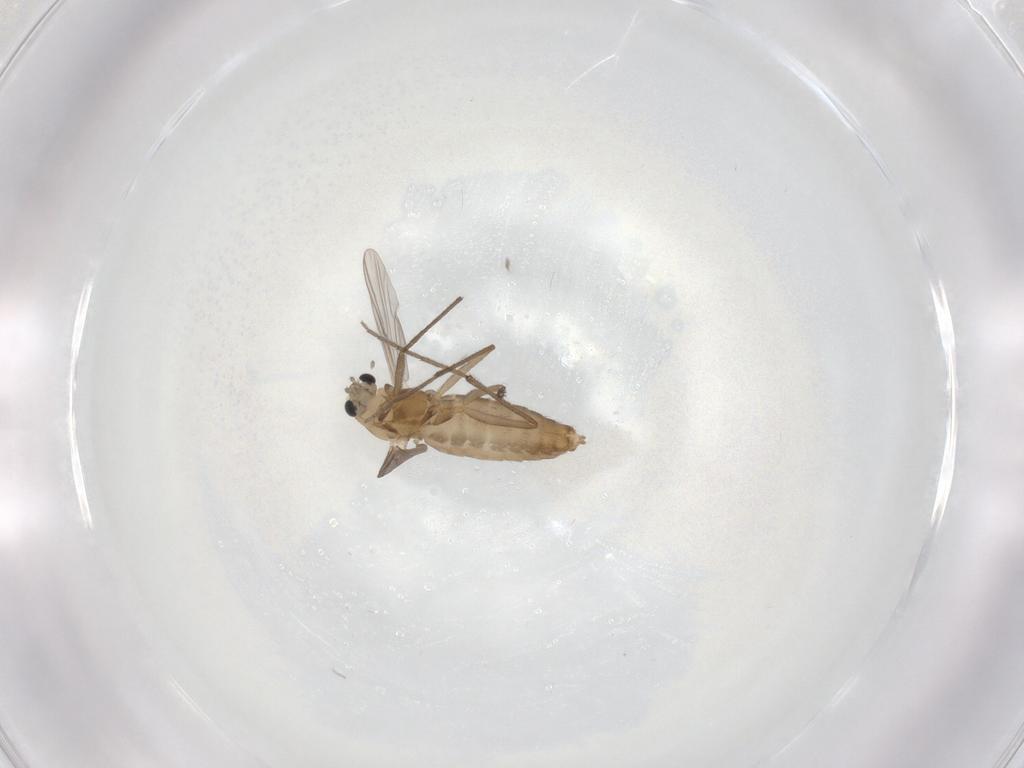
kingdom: Animalia
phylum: Arthropoda
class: Insecta
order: Diptera
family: Chironomidae
